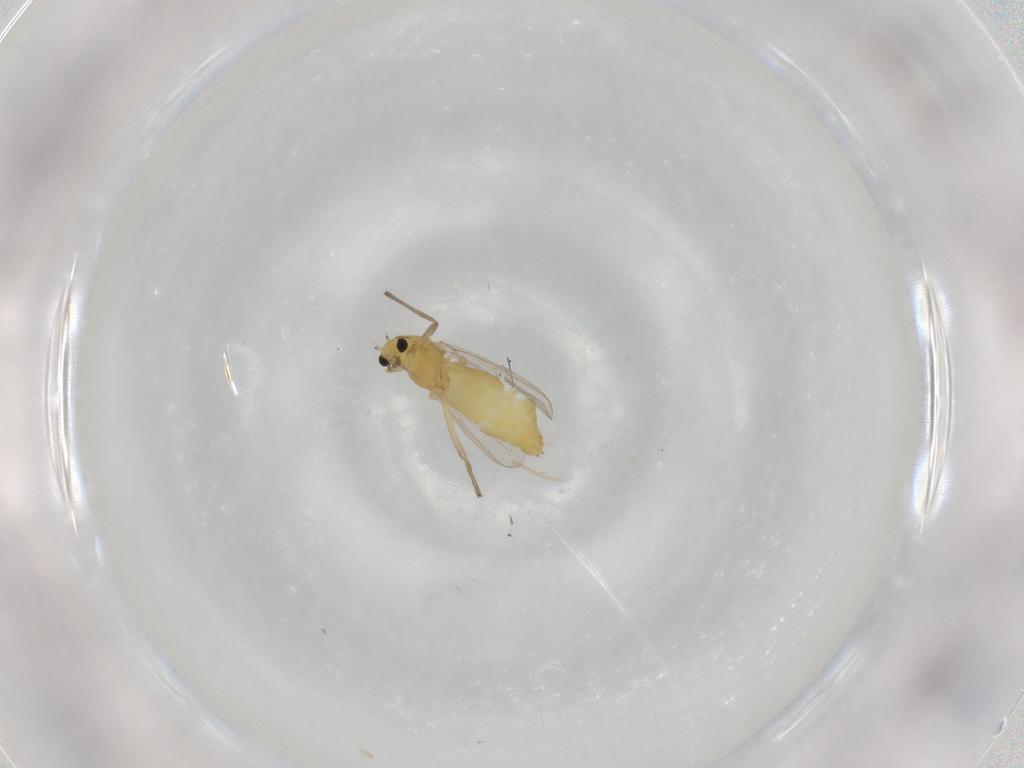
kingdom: Animalia
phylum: Arthropoda
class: Insecta
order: Diptera
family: Chironomidae
